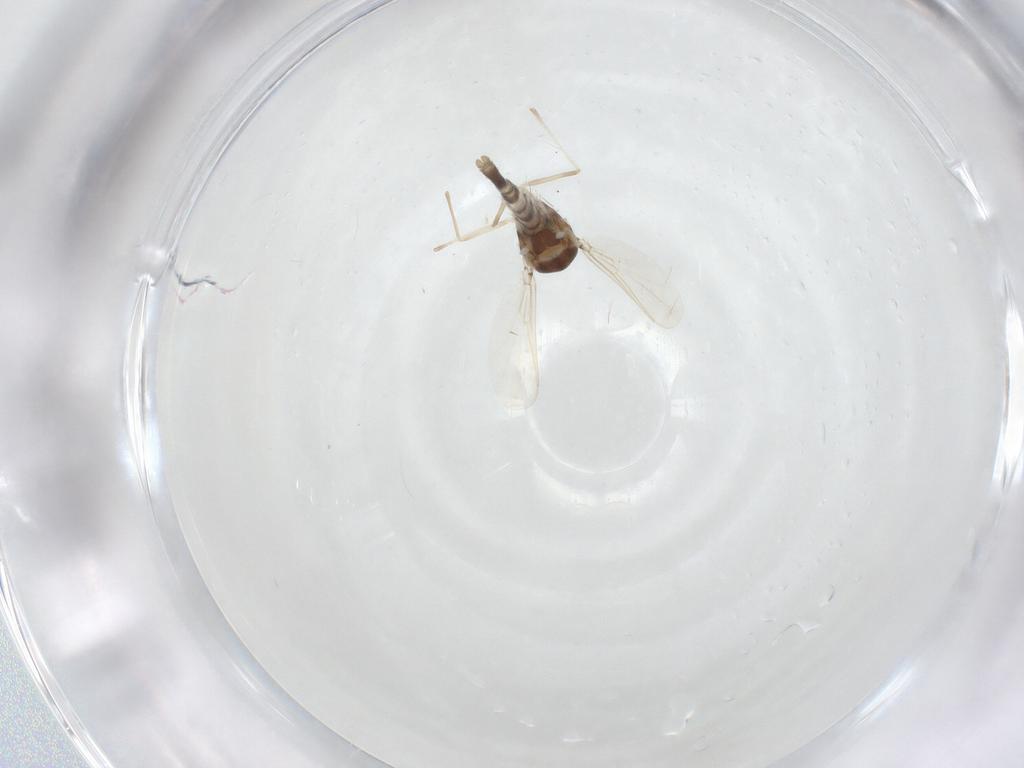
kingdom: Animalia
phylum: Arthropoda
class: Insecta
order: Diptera
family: Chironomidae
